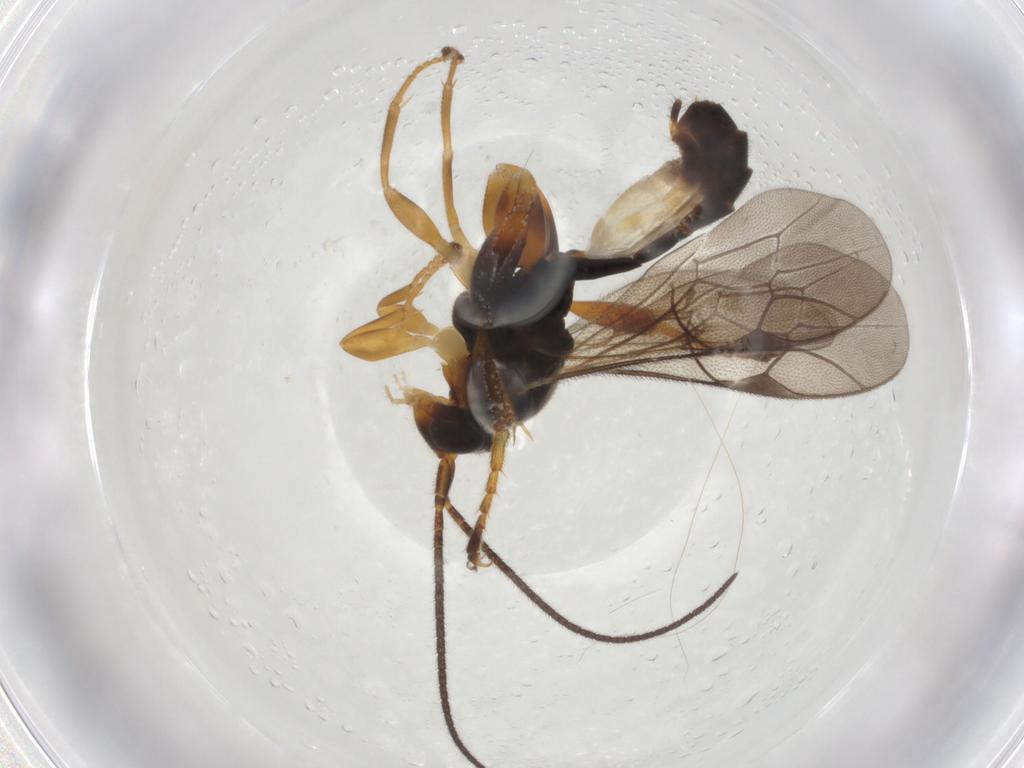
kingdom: Animalia
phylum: Arthropoda
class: Insecta
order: Hymenoptera
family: Ichneumonidae
